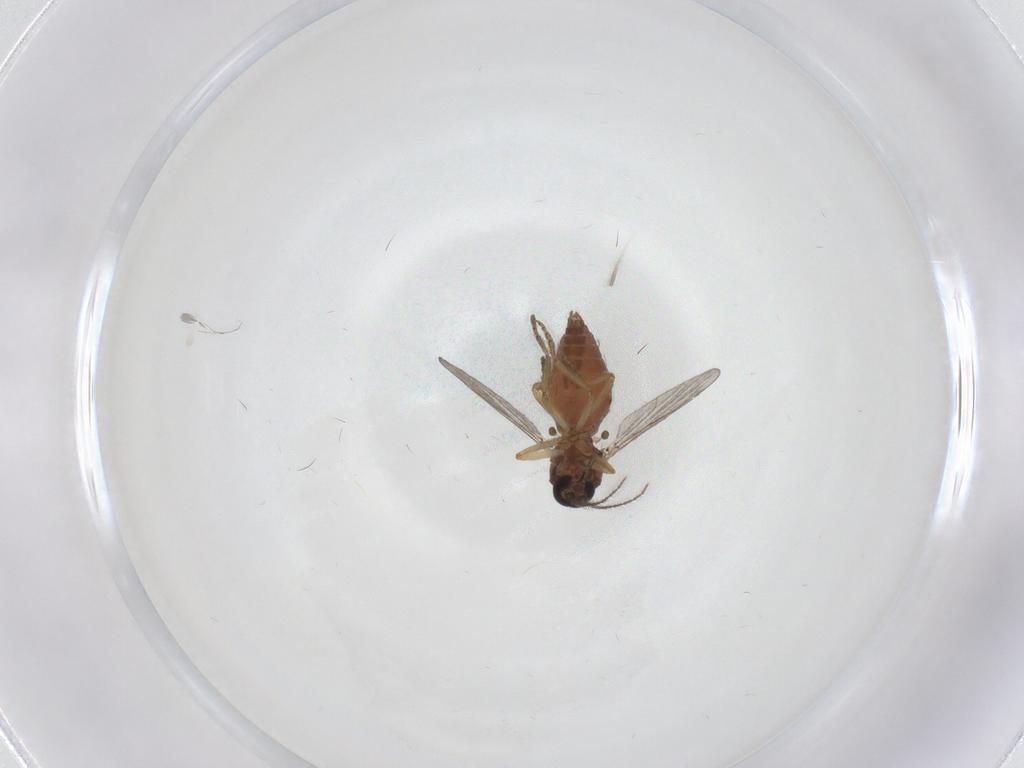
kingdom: Animalia
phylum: Arthropoda
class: Insecta
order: Diptera
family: Ceratopogonidae
